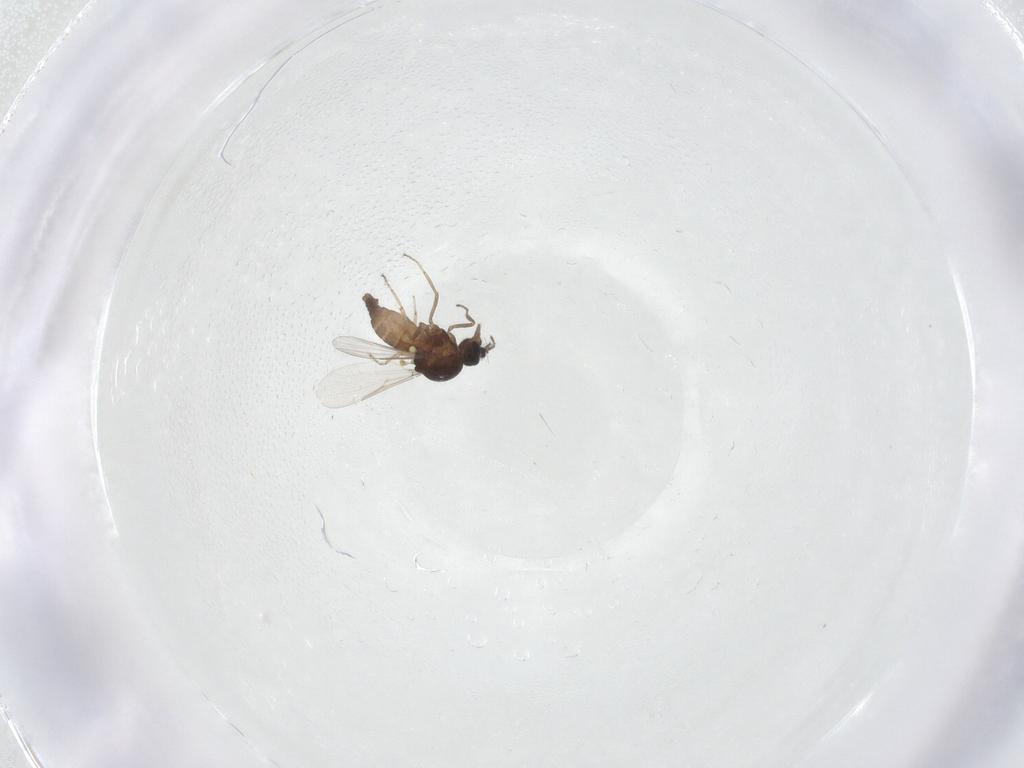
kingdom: Animalia
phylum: Arthropoda
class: Insecta
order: Diptera
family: Ceratopogonidae
